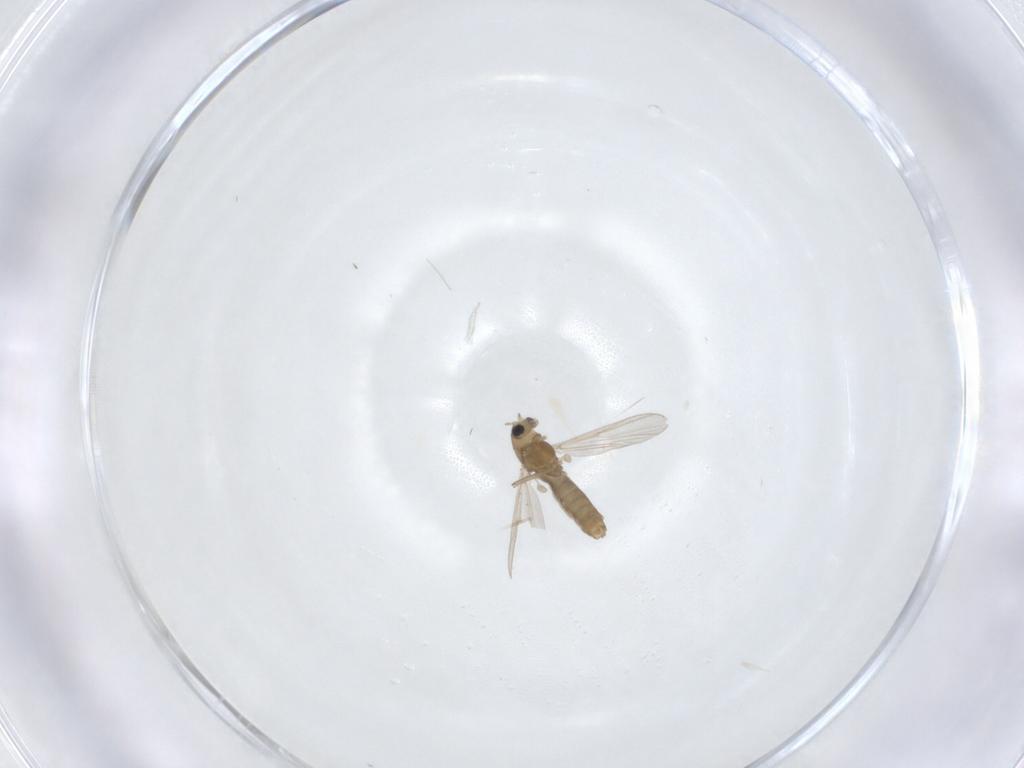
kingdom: Animalia
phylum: Arthropoda
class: Insecta
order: Diptera
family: Chironomidae
